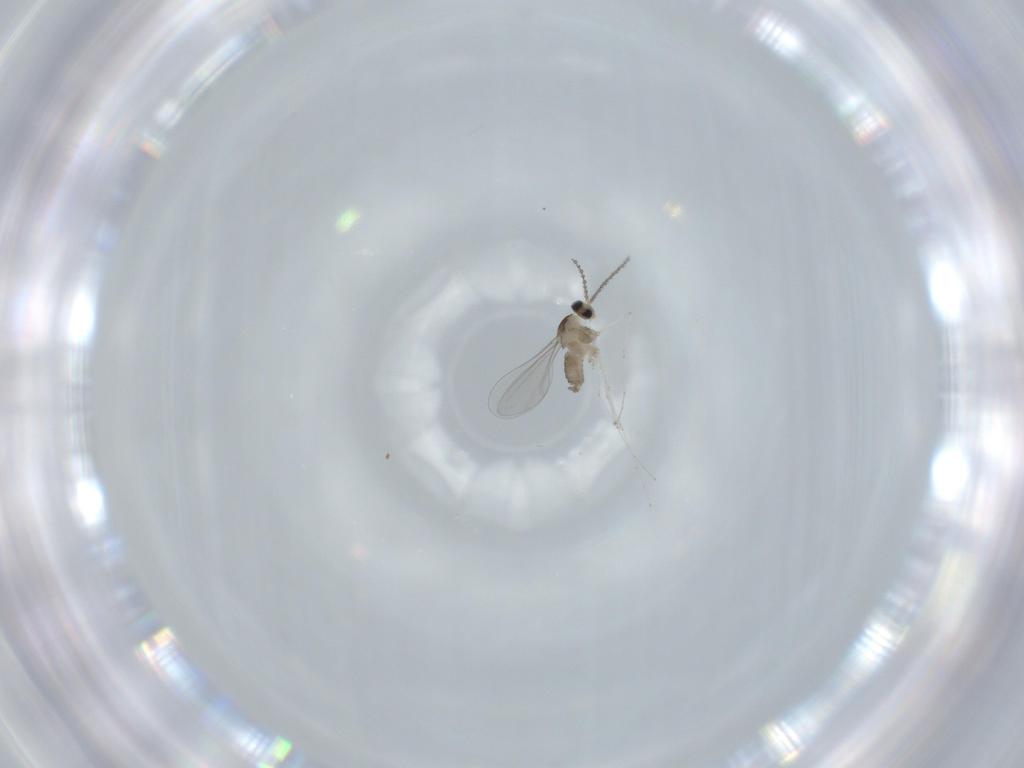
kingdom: Animalia
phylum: Arthropoda
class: Insecta
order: Diptera
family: Cecidomyiidae
